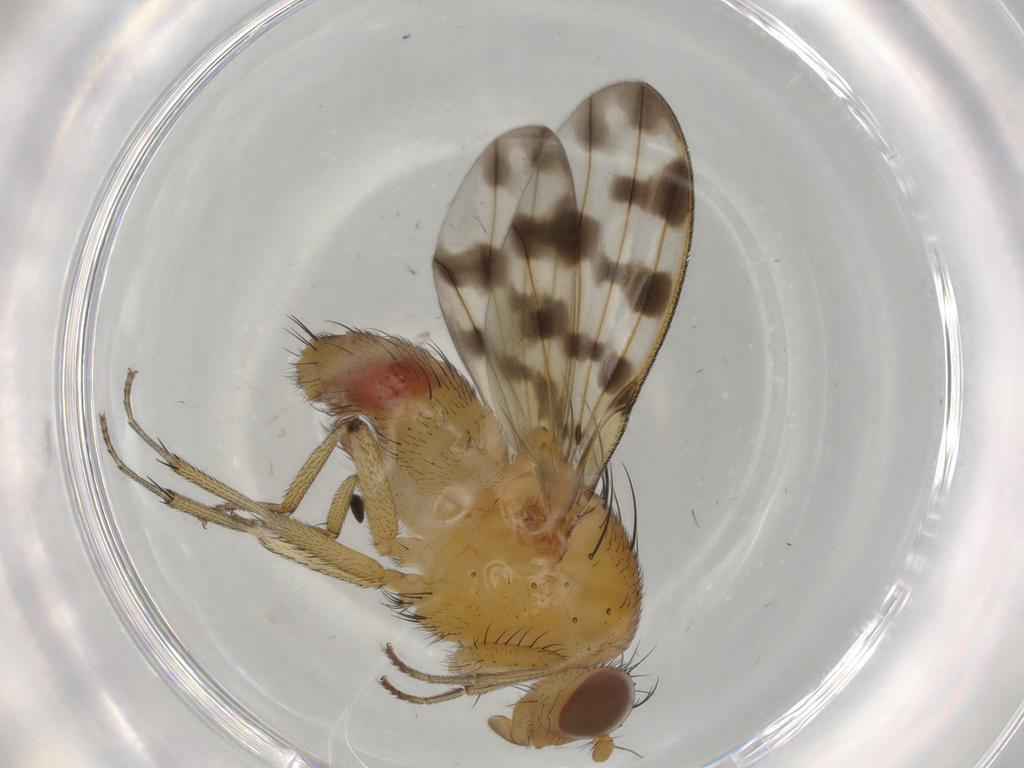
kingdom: Animalia
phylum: Arthropoda
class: Insecta
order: Diptera
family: Cecidomyiidae
